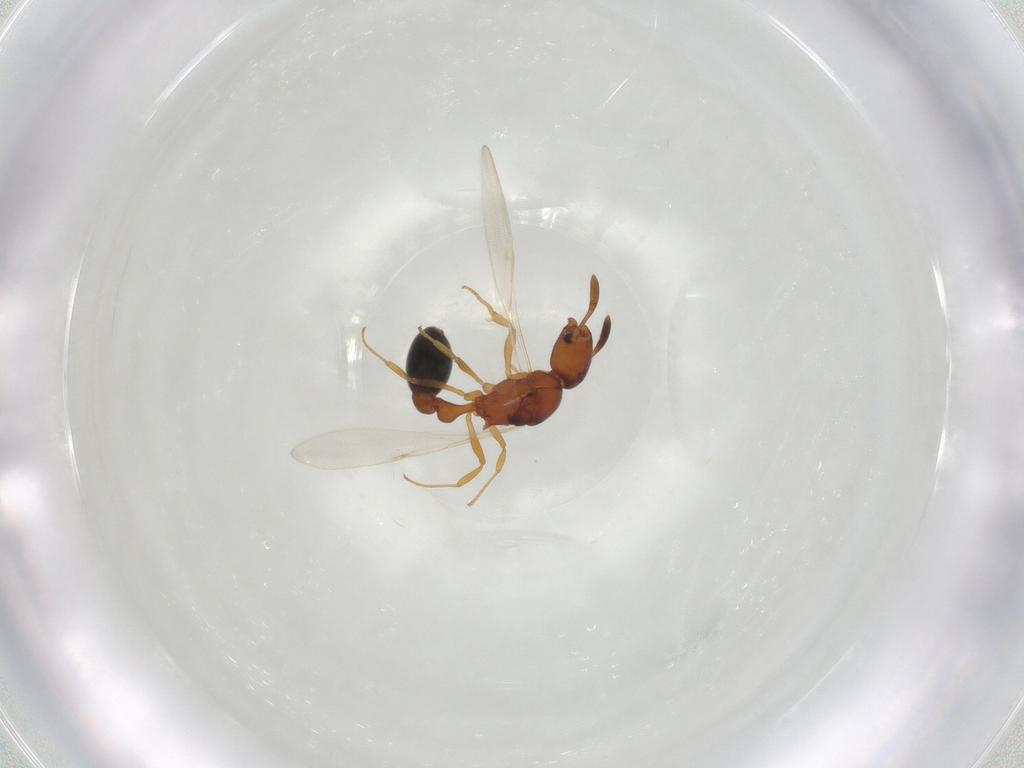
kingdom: Animalia
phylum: Arthropoda
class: Insecta
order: Hymenoptera
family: Formicidae
